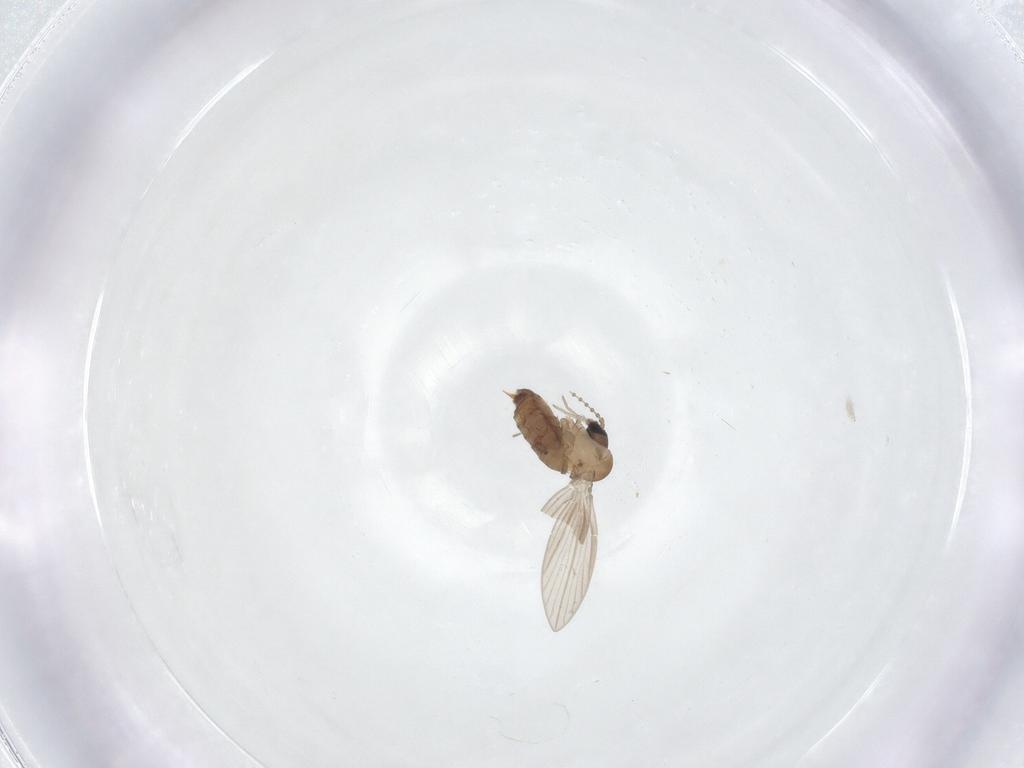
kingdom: Animalia
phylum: Arthropoda
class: Insecta
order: Diptera
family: Psychodidae
